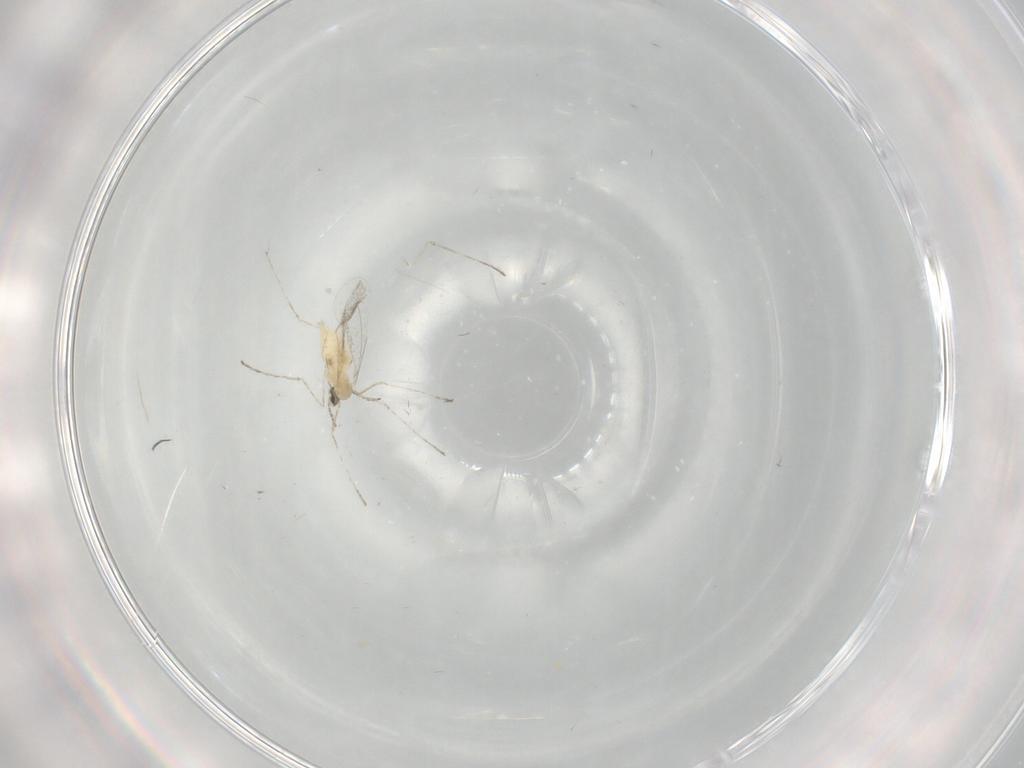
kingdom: Animalia
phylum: Arthropoda
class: Insecta
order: Diptera
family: Cecidomyiidae
